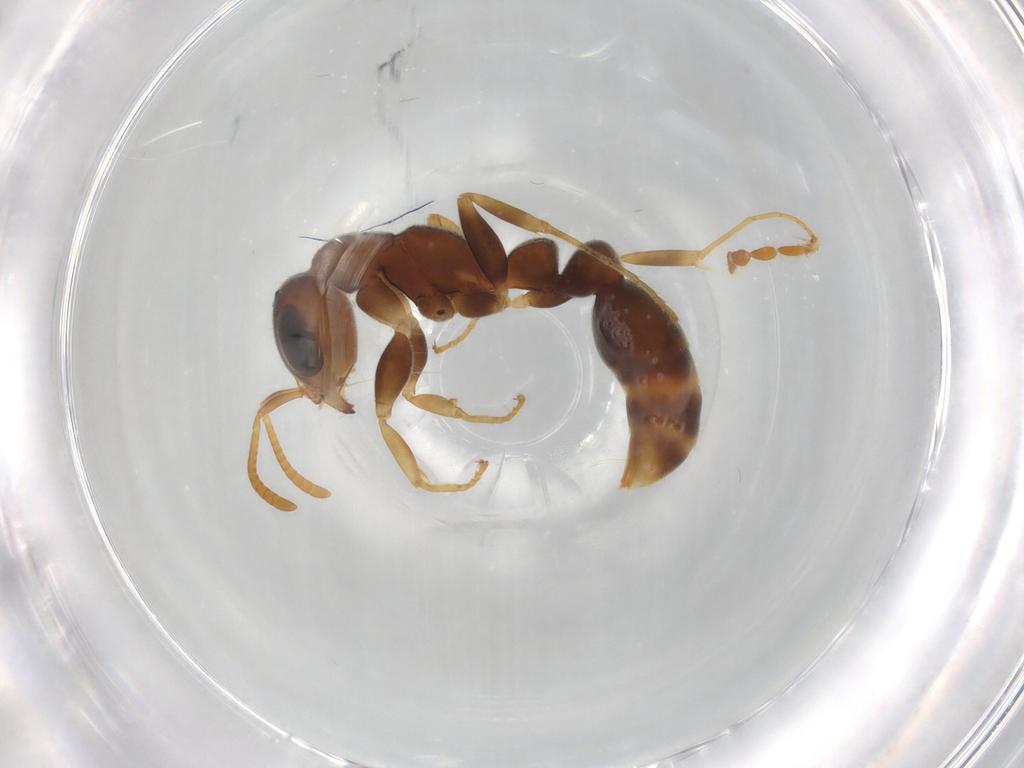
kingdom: Animalia
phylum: Arthropoda
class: Insecta
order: Hymenoptera
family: Formicidae
